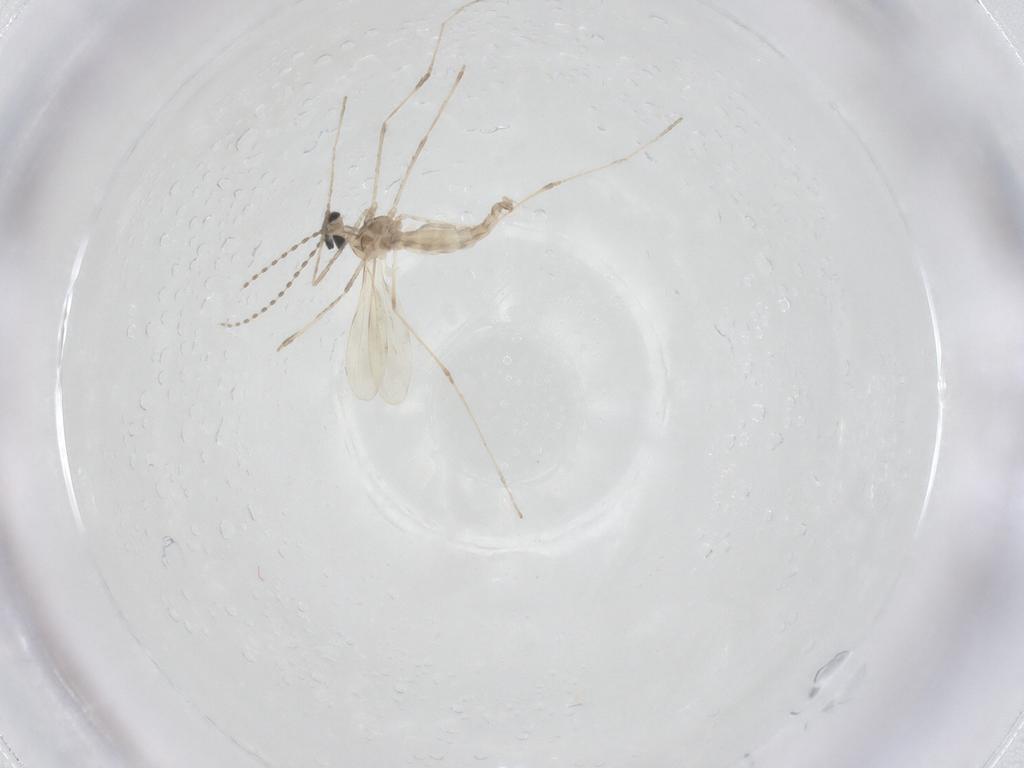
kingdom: Animalia
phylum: Arthropoda
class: Insecta
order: Diptera
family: Cecidomyiidae
